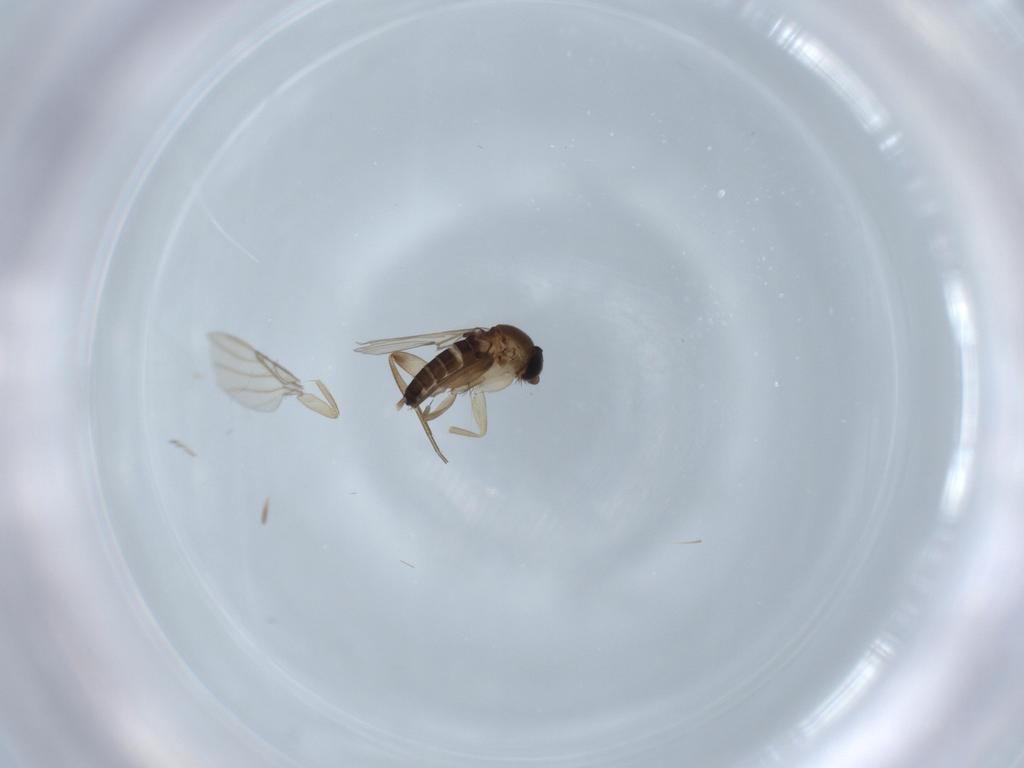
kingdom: Animalia
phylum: Arthropoda
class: Insecta
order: Diptera
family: Phoridae
